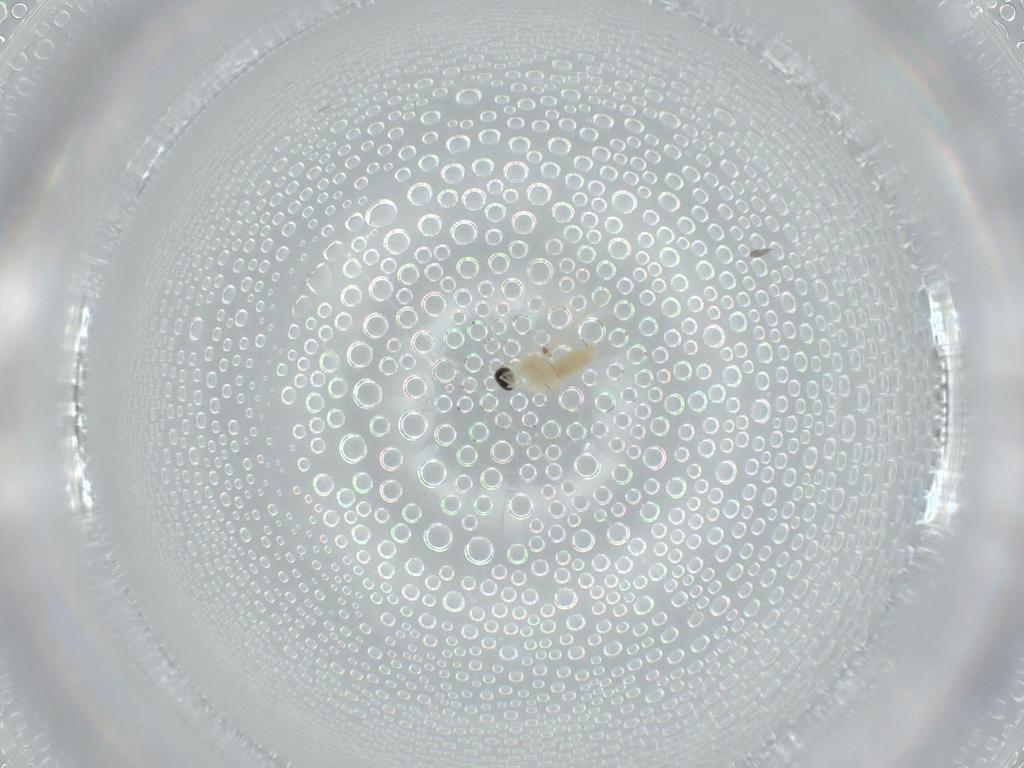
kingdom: Animalia
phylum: Arthropoda
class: Insecta
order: Diptera
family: Cecidomyiidae
